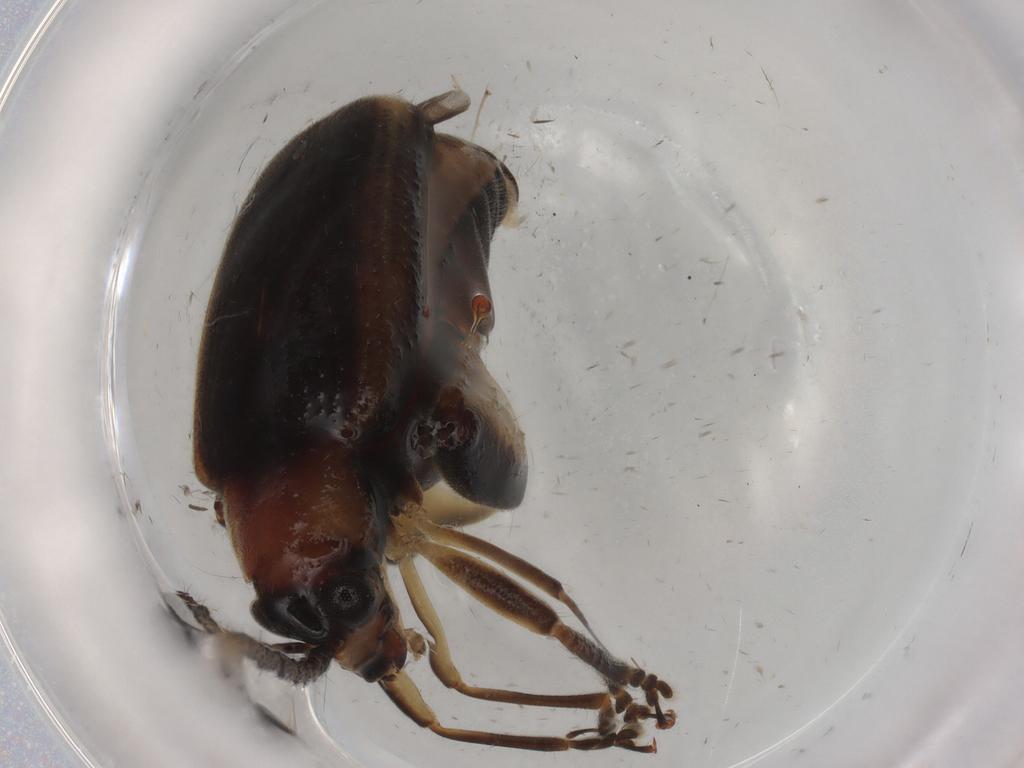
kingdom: Animalia
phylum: Arthropoda
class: Insecta
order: Coleoptera
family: Chrysomelidae
